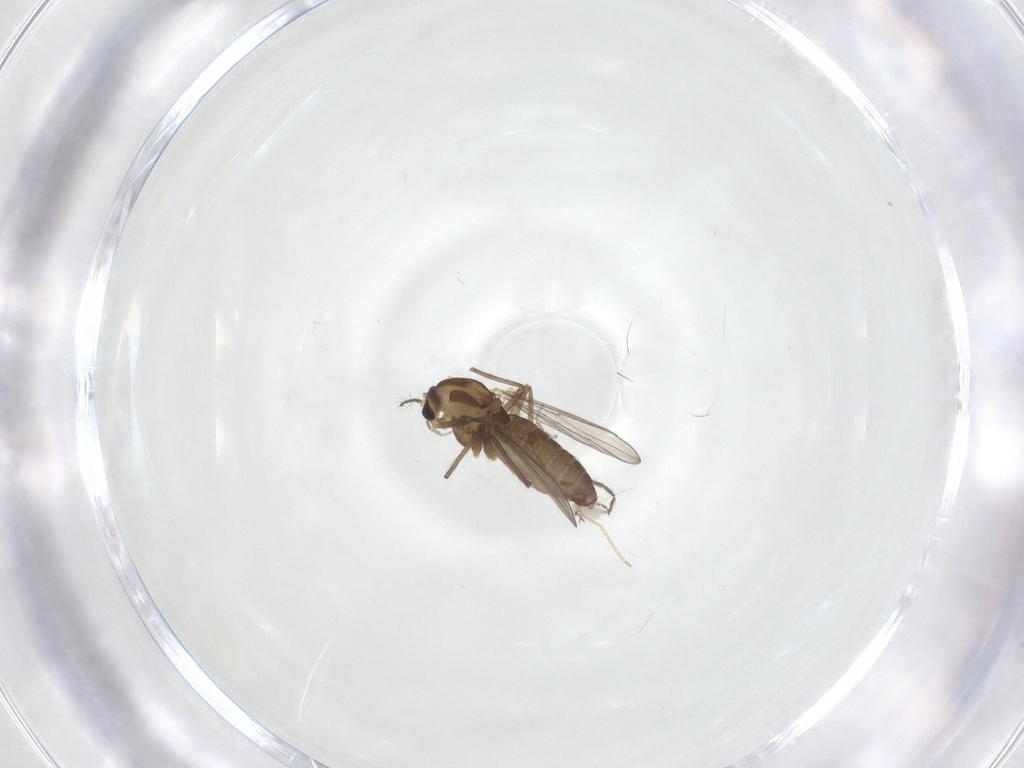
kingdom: Animalia
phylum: Arthropoda
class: Insecta
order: Diptera
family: Chironomidae
